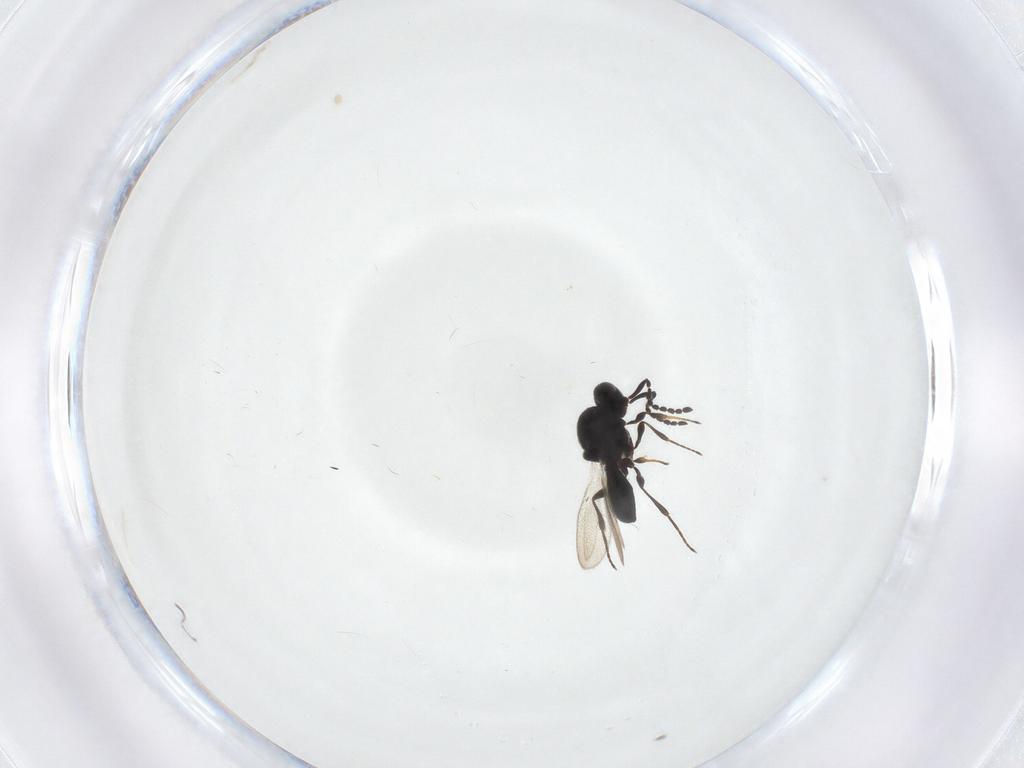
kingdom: Animalia
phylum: Arthropoda
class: Insecta
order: Hymenoptera
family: Platygastridae
